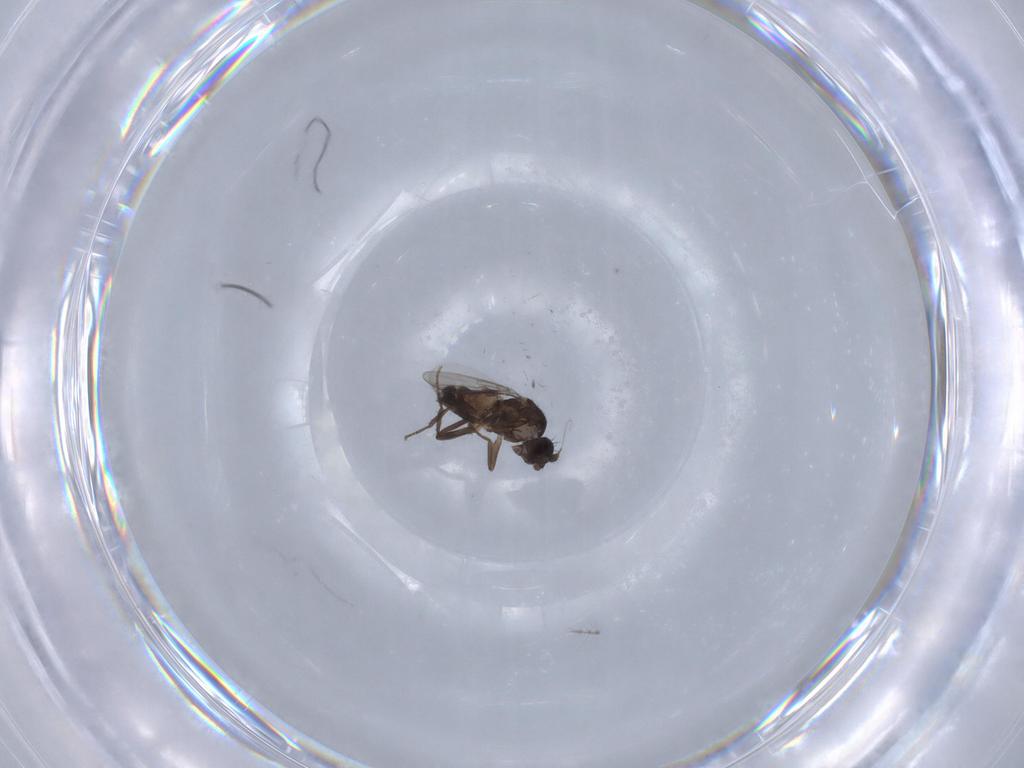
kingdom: Animalia
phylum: Arthropoda
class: Insecta
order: Diptera
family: Sphaeroceridae
